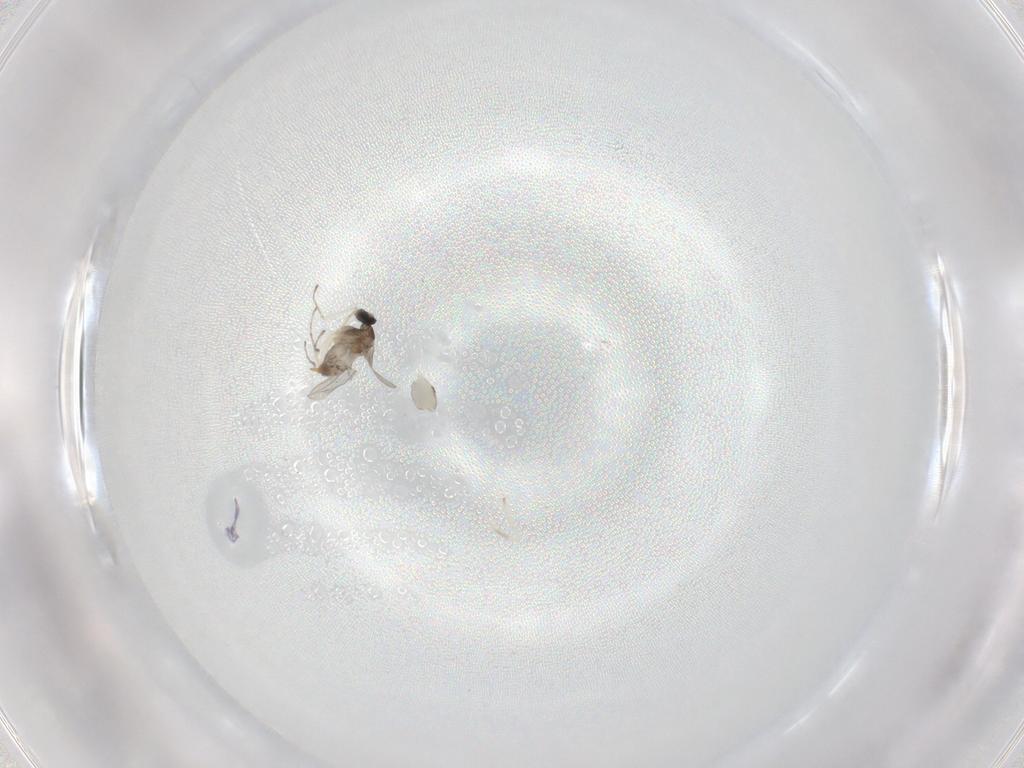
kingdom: Animalia
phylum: Arthropoda
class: Insecta
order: Diptera
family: Cecidomyiidae
